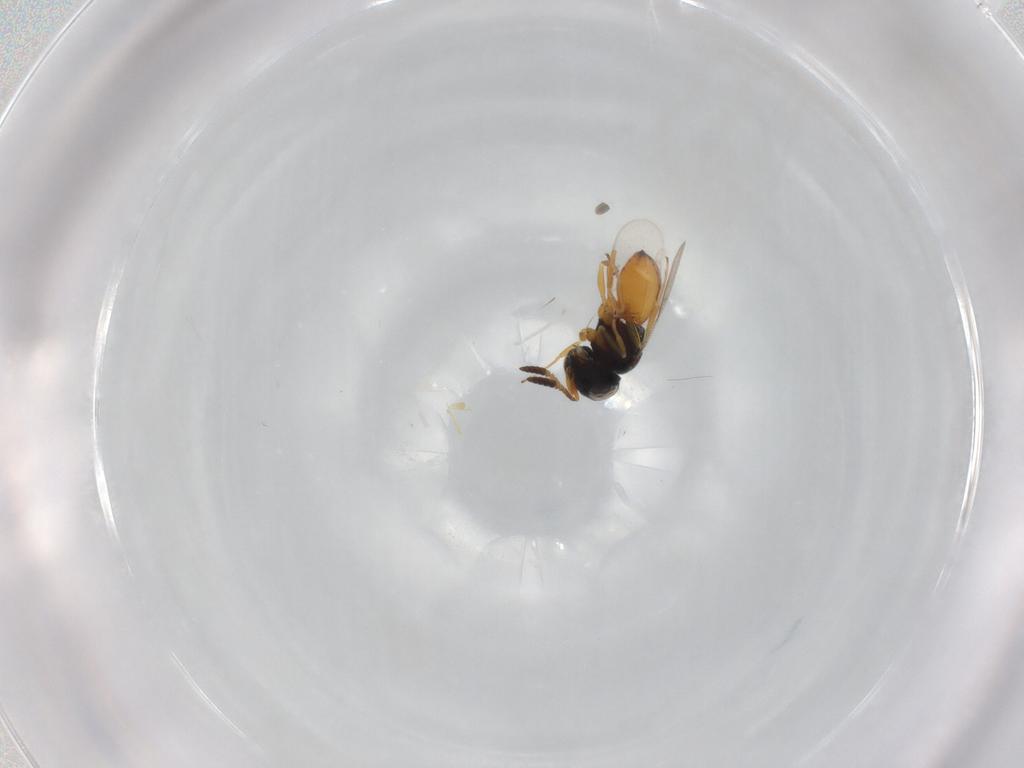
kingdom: Animalia
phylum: Arthropoda
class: Insecta
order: Hymenoptera
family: Scelionidae
